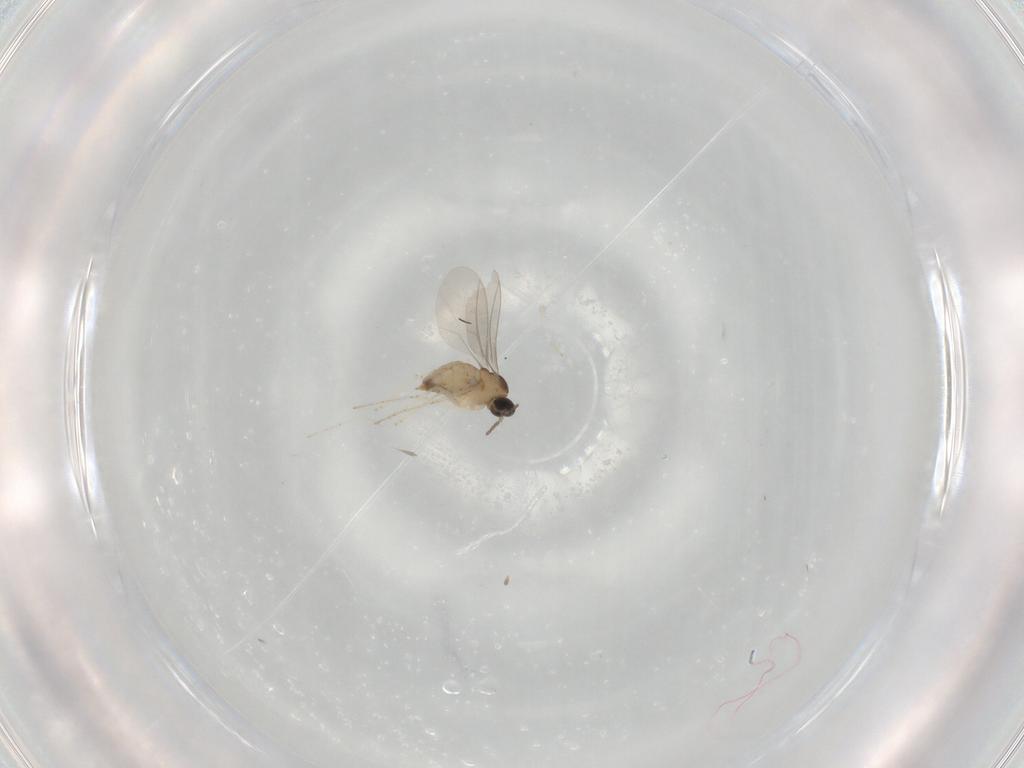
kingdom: Animalia
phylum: Arthropoda
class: Insecta
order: Diptera
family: Cecidomyiidae
